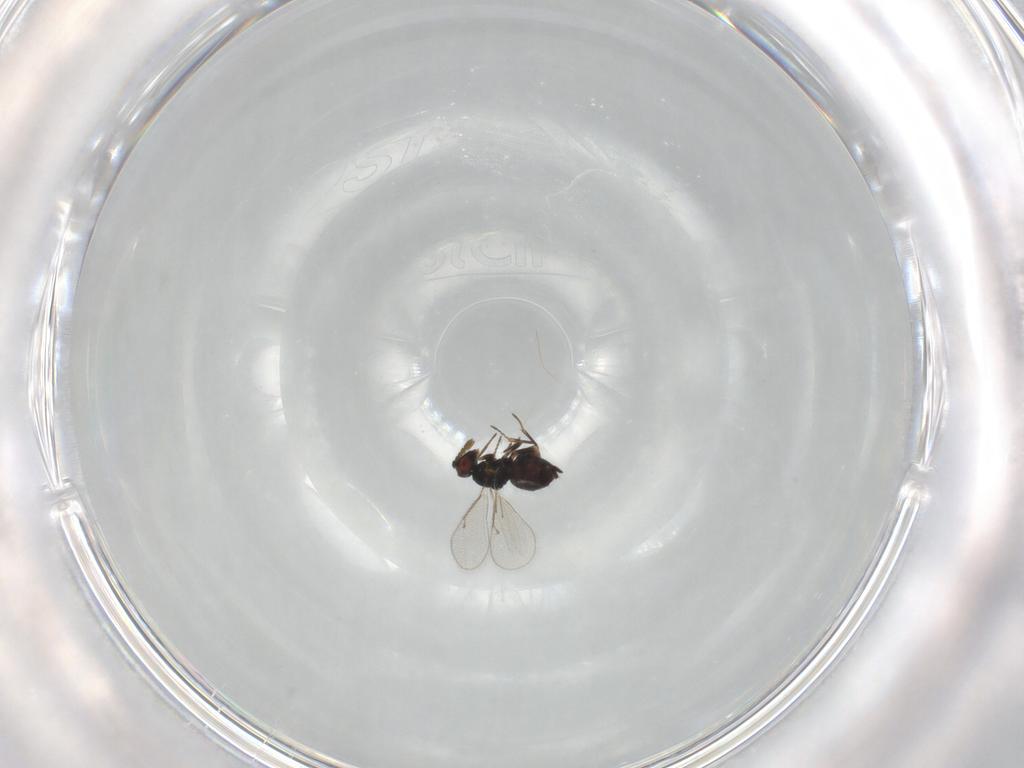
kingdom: Animalia
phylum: Arthropoda
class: Insecta
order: Hymenoptera
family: Eulophidae
